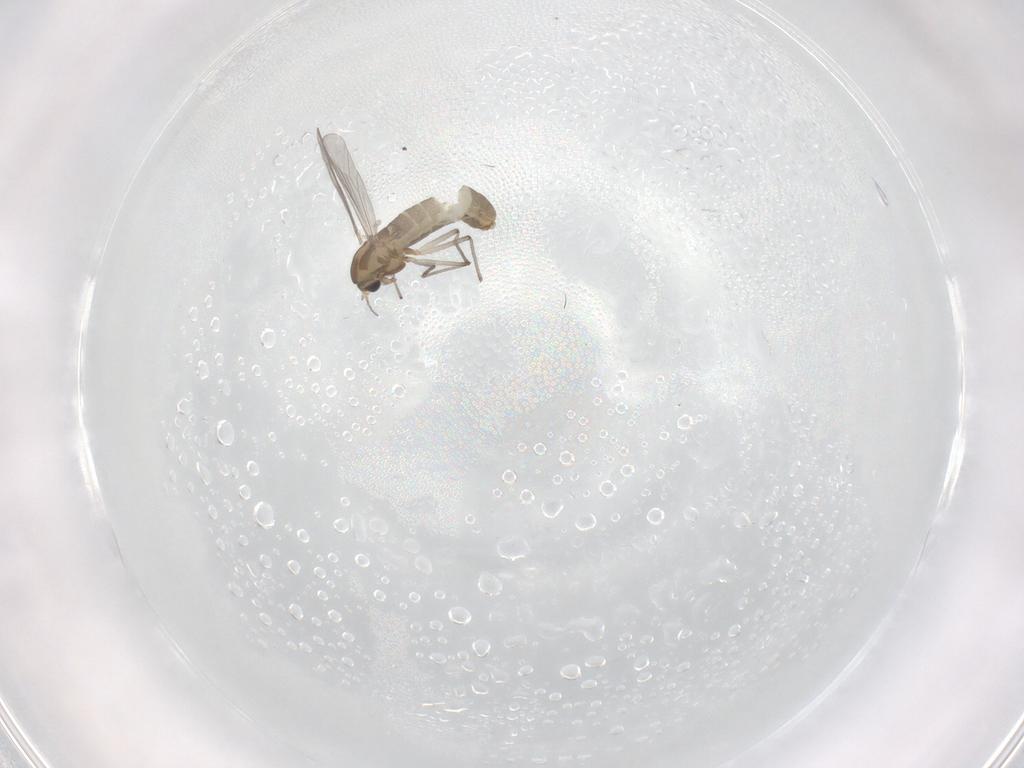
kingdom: Animalia
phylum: Arthropoda
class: Insecta
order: Diptera
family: Chironomidae
